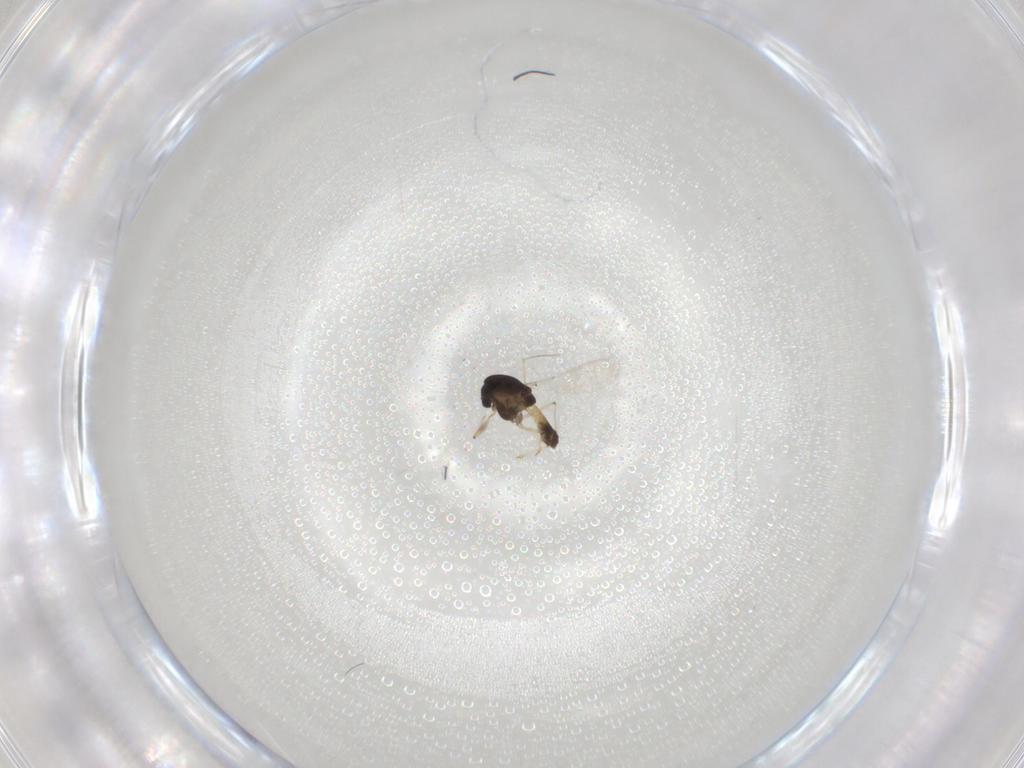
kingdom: Animalia
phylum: Arthropoda
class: Insecta
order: Diptera
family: Chironomidae
